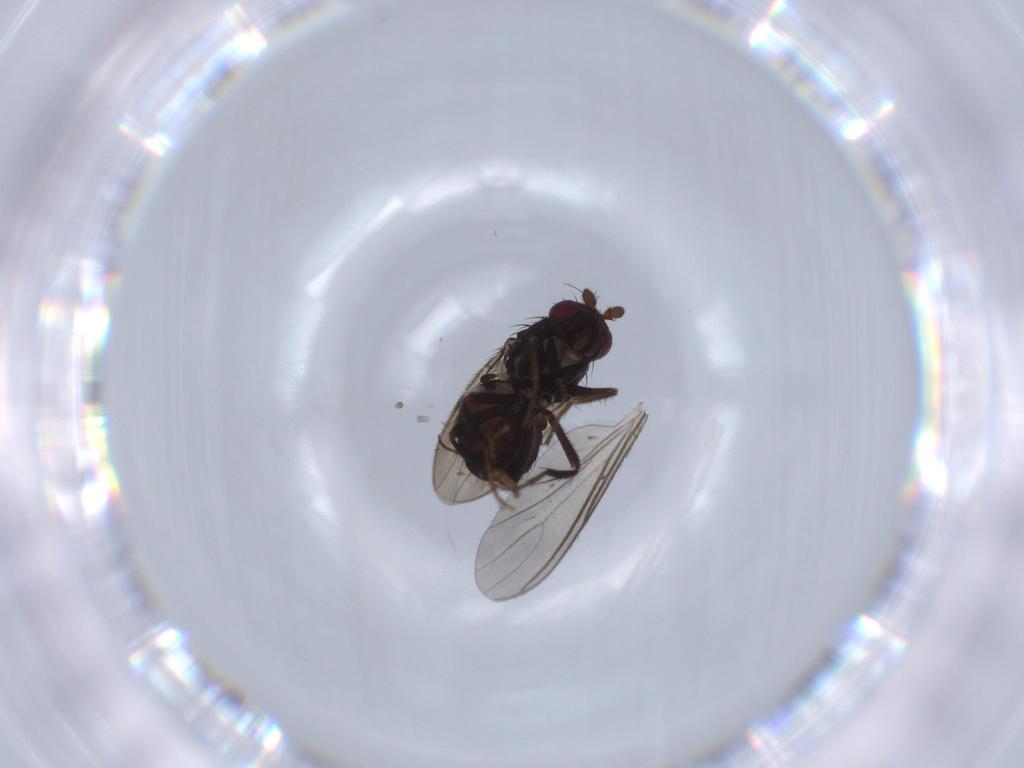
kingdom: Animalia
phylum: Arthropoda
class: Insecta
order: Diptera
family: Sphaeroceridae
